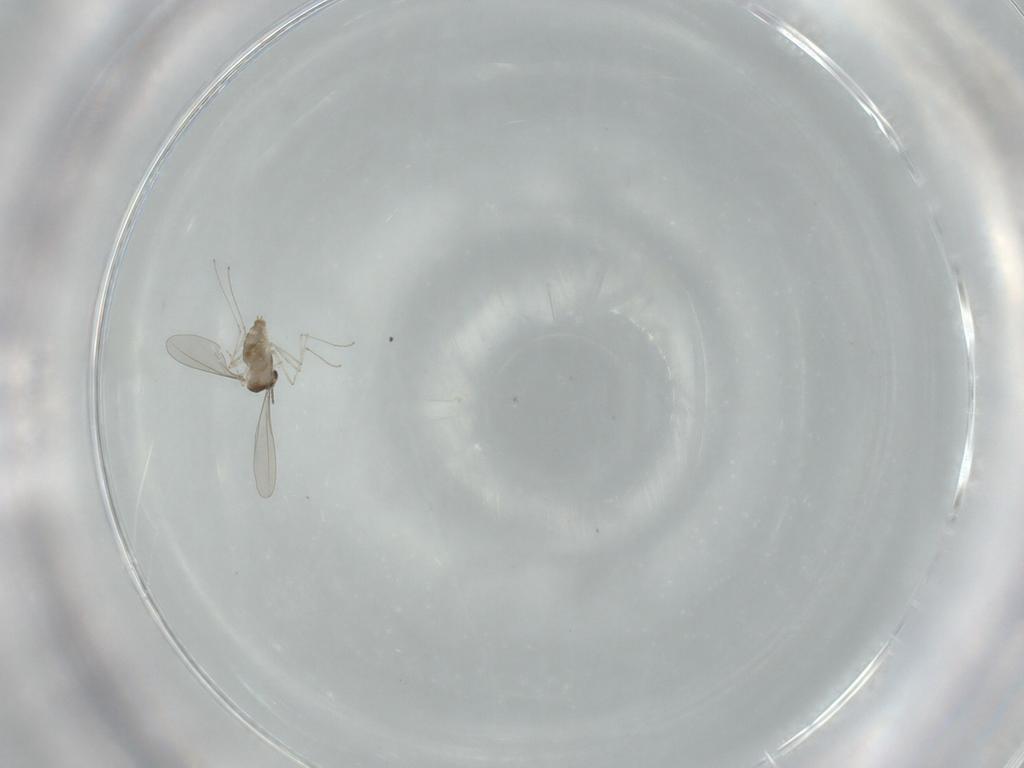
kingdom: Animalia
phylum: Arthropoda
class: Insecta
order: Diptera
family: Cecidomyiidae
